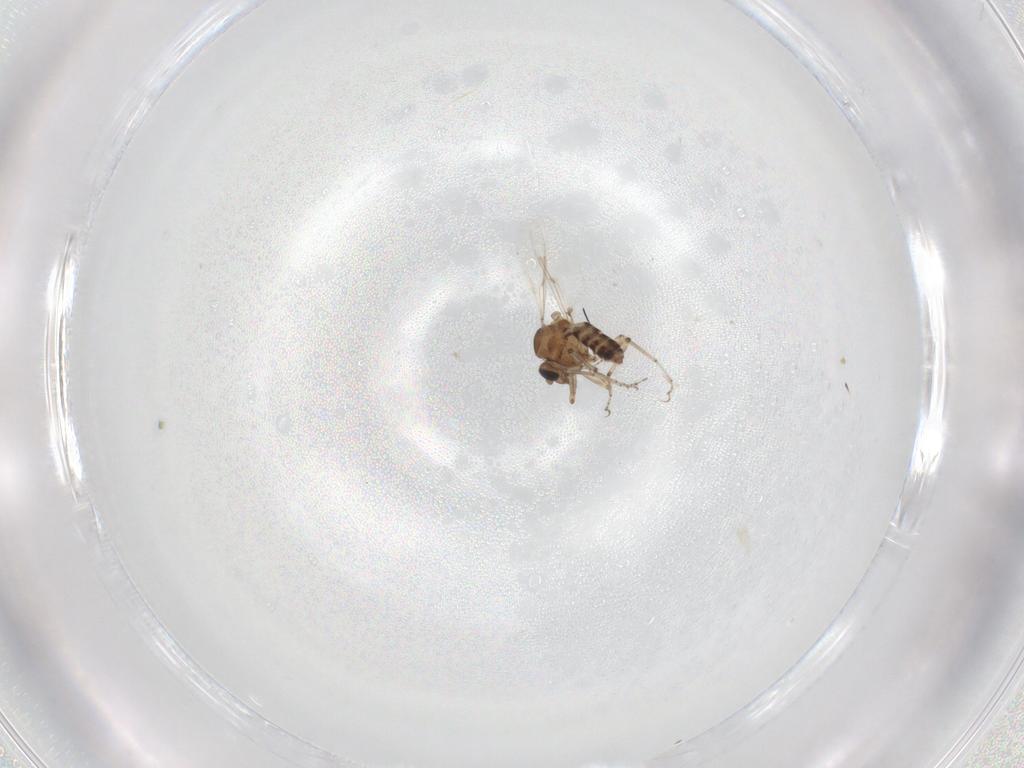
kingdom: Animalia
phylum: Arthropoda
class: Insecta
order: Diptera
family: Ceratopogonidae
